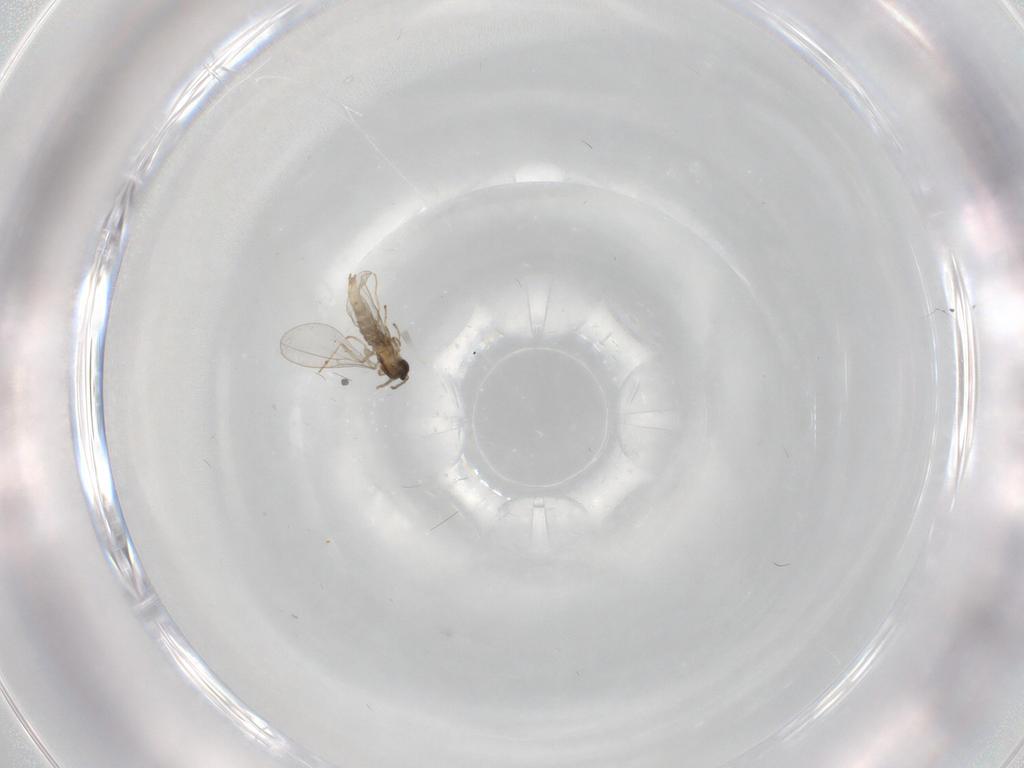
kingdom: Animalia
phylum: Arthropoda
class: Insecta
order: Diptera
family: Cecidomyiidae
